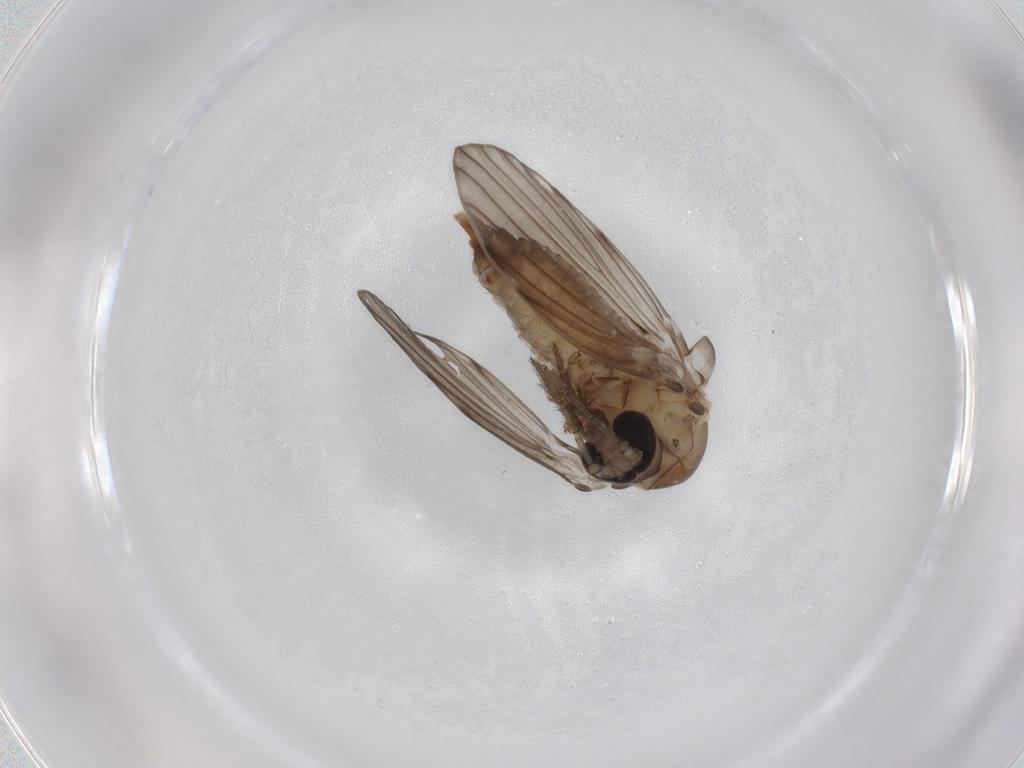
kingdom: Animalia
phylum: Arthropoda
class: Insecta
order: Diptera
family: Psychodidae
